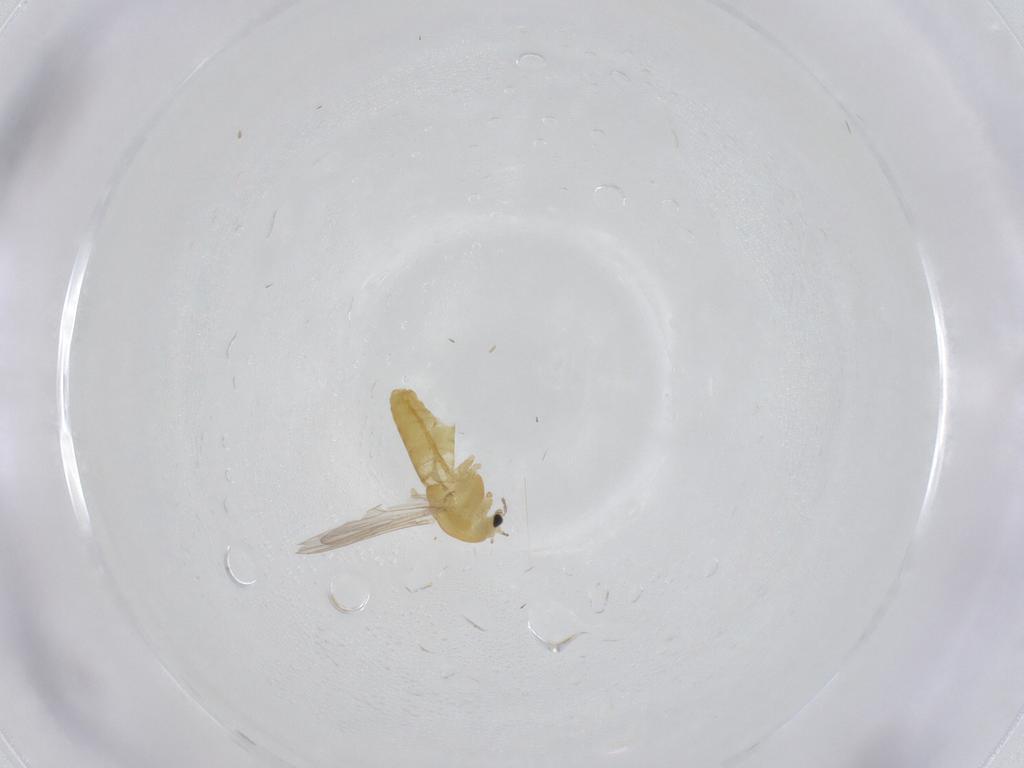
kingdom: Animalia
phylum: Arthropoda
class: Insecta
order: Diptera
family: Chironomidae
